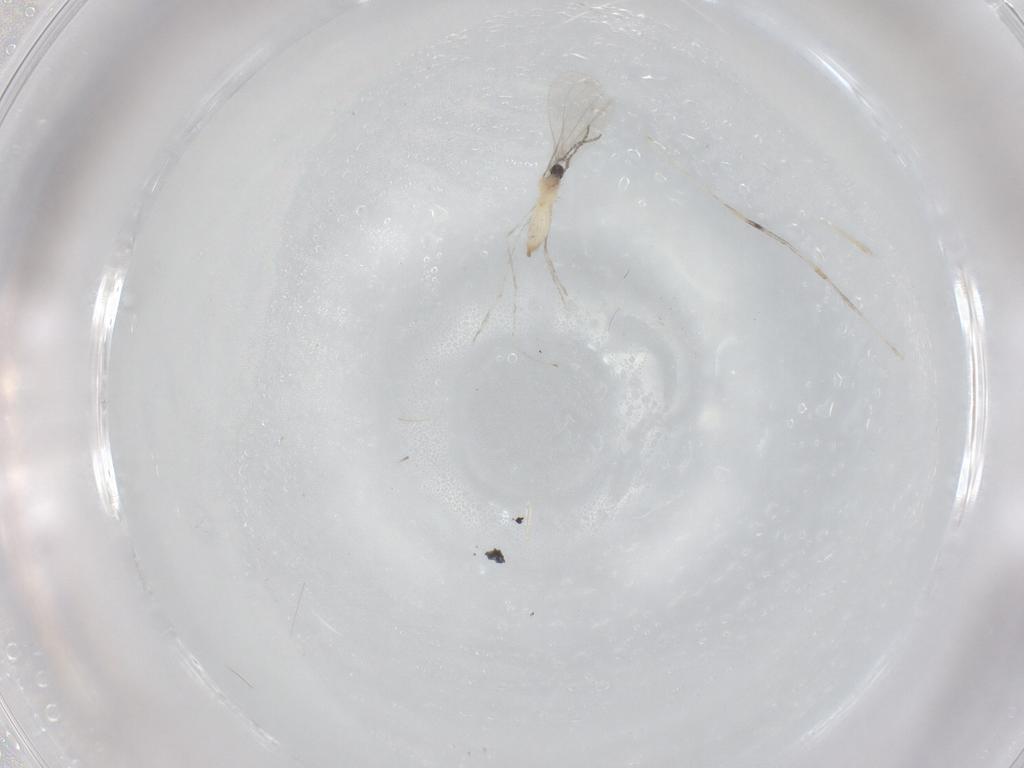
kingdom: Animalia
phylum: Arthropoda
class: Insecta
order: Diptera
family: Cecidomyiidae
